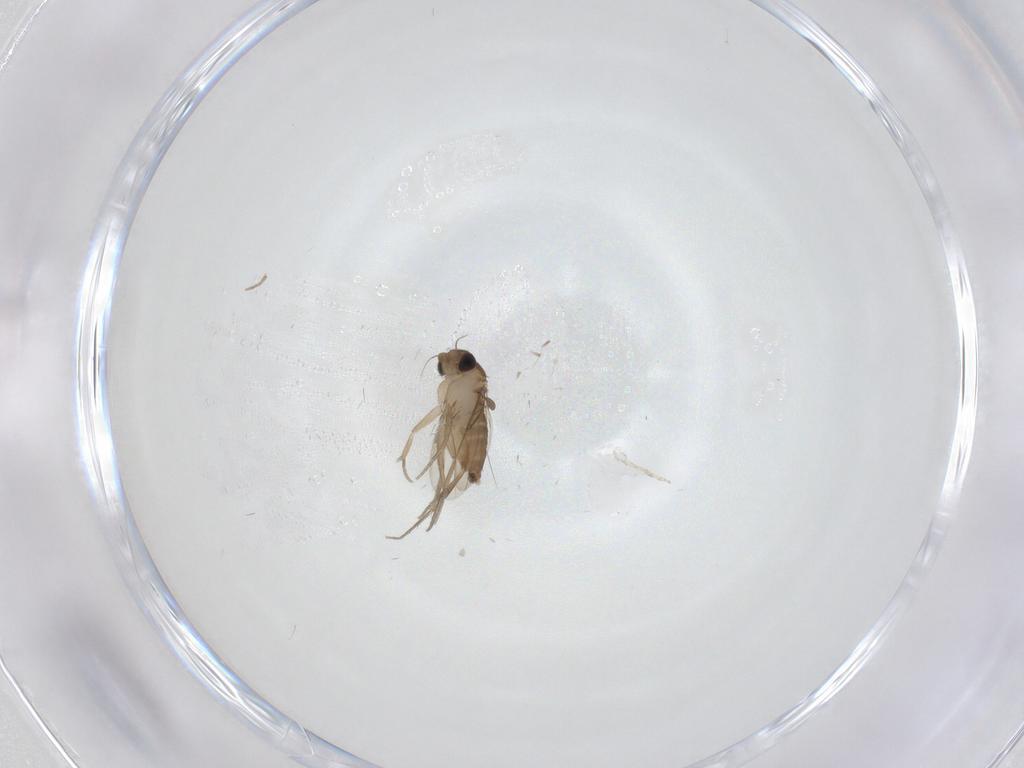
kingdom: Animalia
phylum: Arthropoda
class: Insecta
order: Diptera
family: Phoridae
